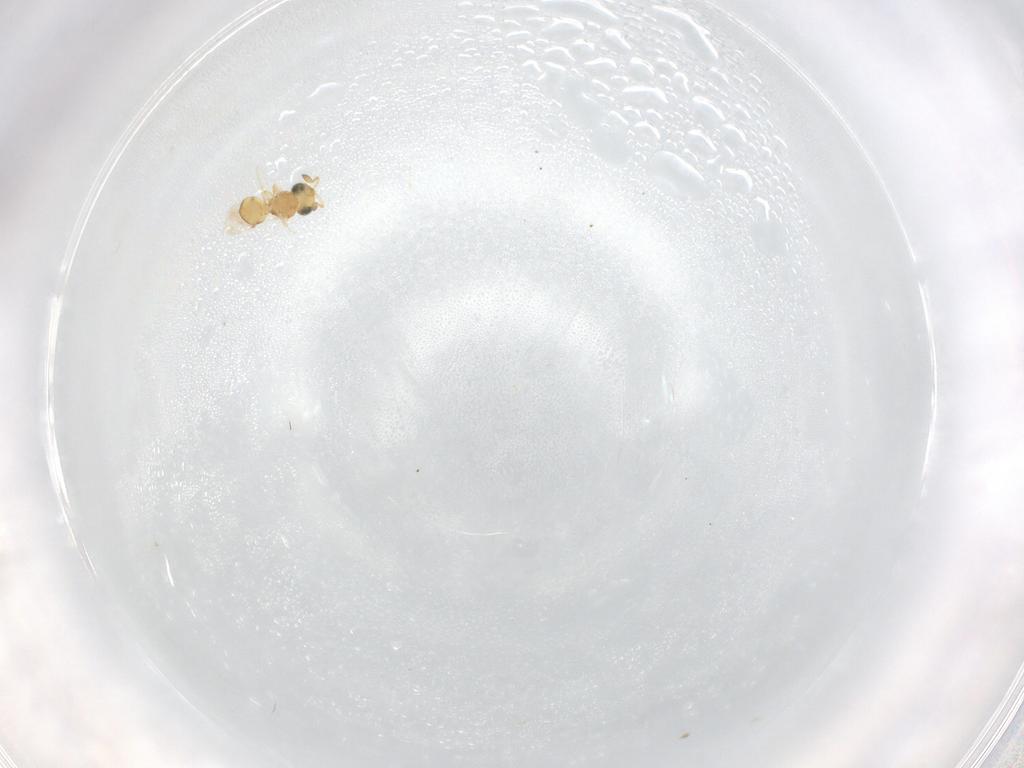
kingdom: Animalia
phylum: Arthropoda
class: Insecta
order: Hymenoptera
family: Scelionidae
